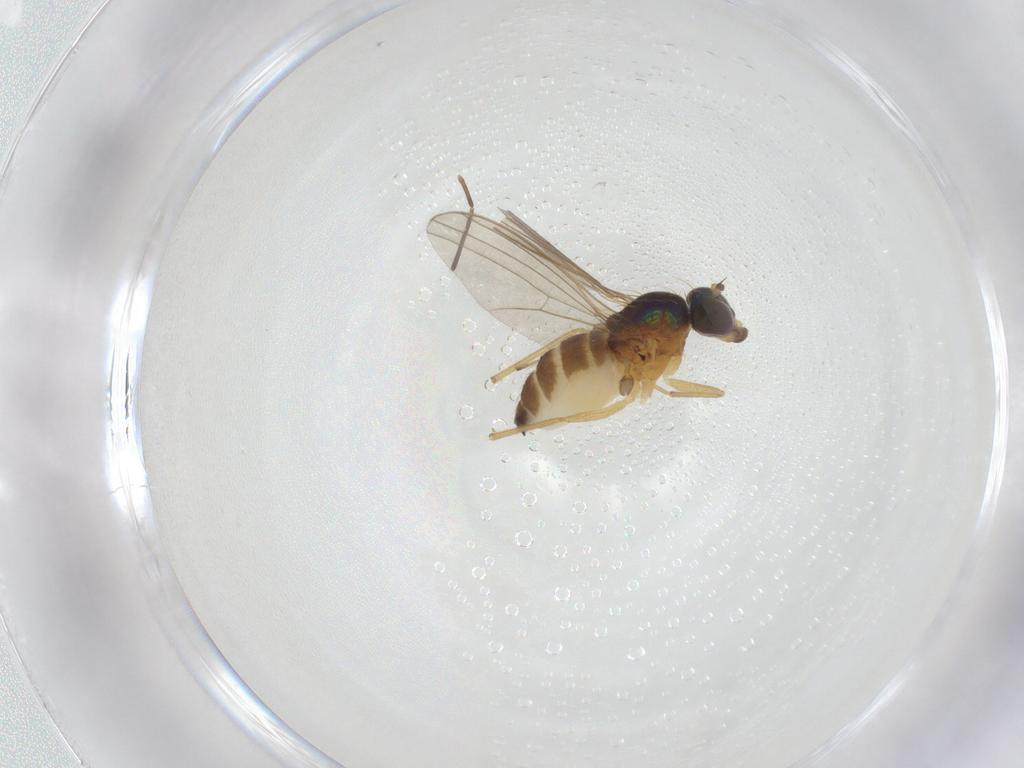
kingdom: Animalia
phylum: Arthropoda
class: Insecta
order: Diptera
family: Dolichopodidae
